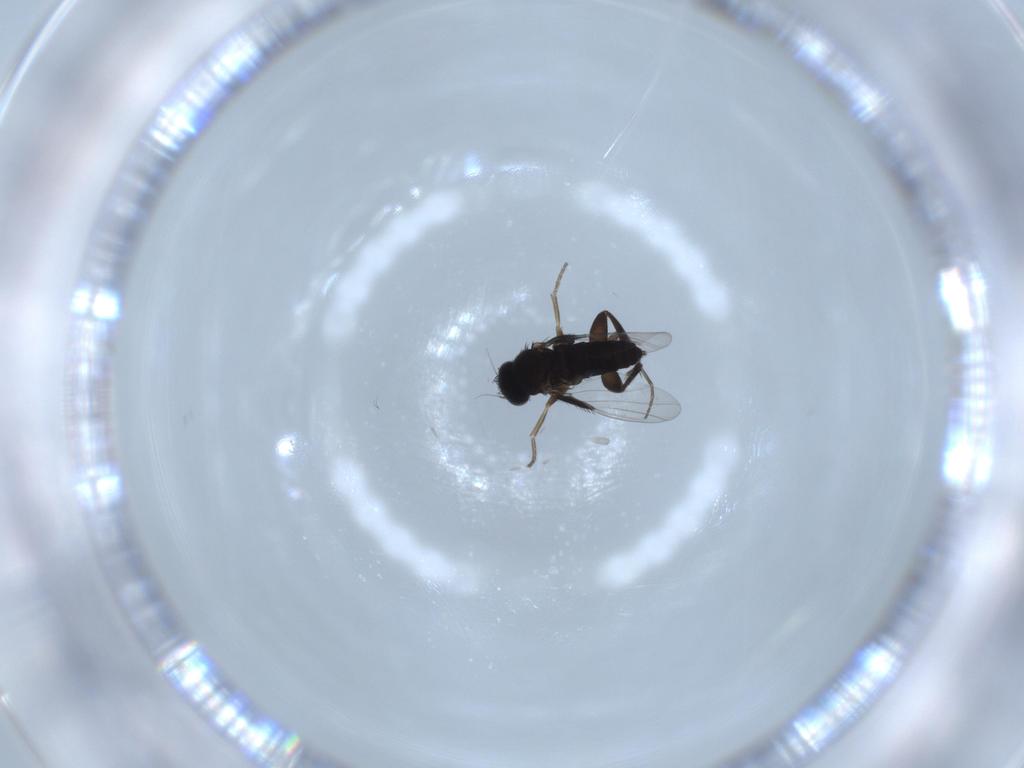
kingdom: Animalia
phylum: Arthropoda
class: Insecta
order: Diptera
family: Phoridae
